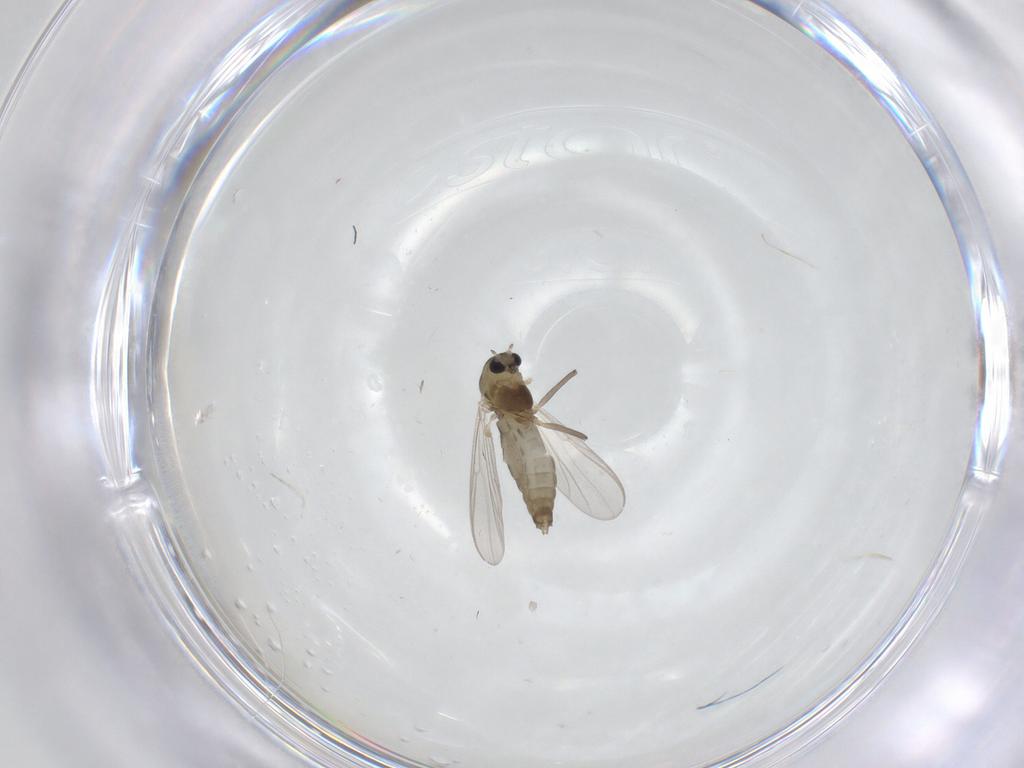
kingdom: Animalia
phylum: Arthropoda
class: Insecta
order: Diptera
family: Chironomidae
